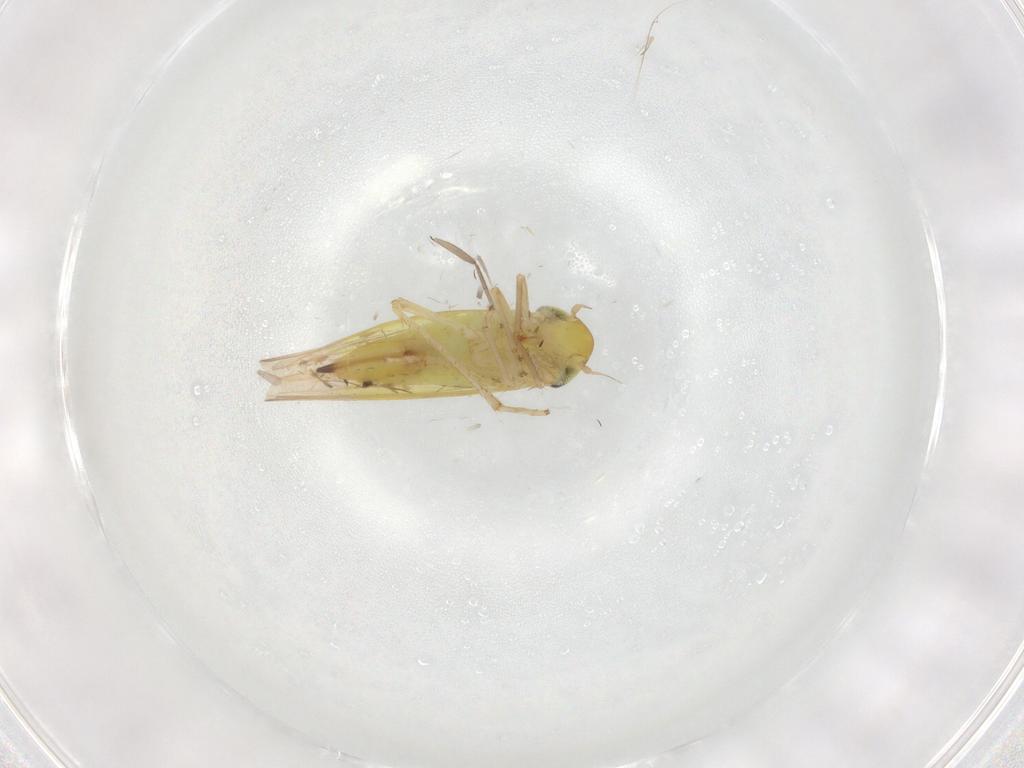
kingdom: Animalia
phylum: Arthropoda
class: Insecta
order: Hemiptera
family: Cicadellidae
